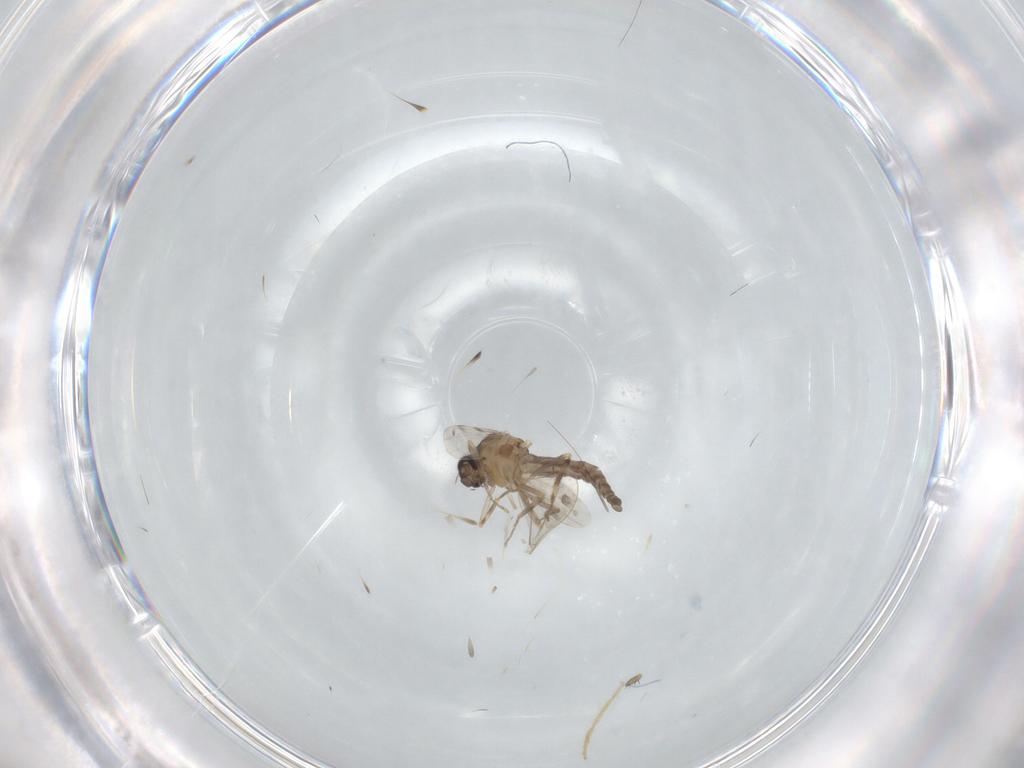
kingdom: Animalia
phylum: Arthropoda
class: Insecta
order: Diptera
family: Ceratopogonidae
